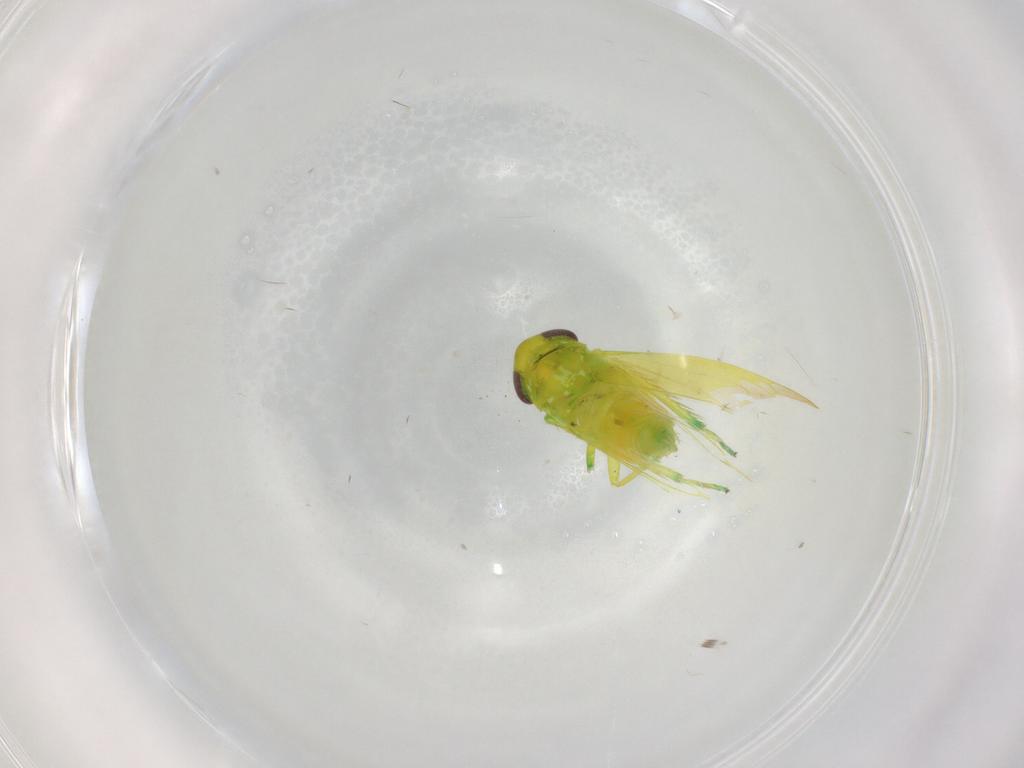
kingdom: Animalia
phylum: Arthropoda
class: Insecta
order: Hemiptera
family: Cicadellidae
